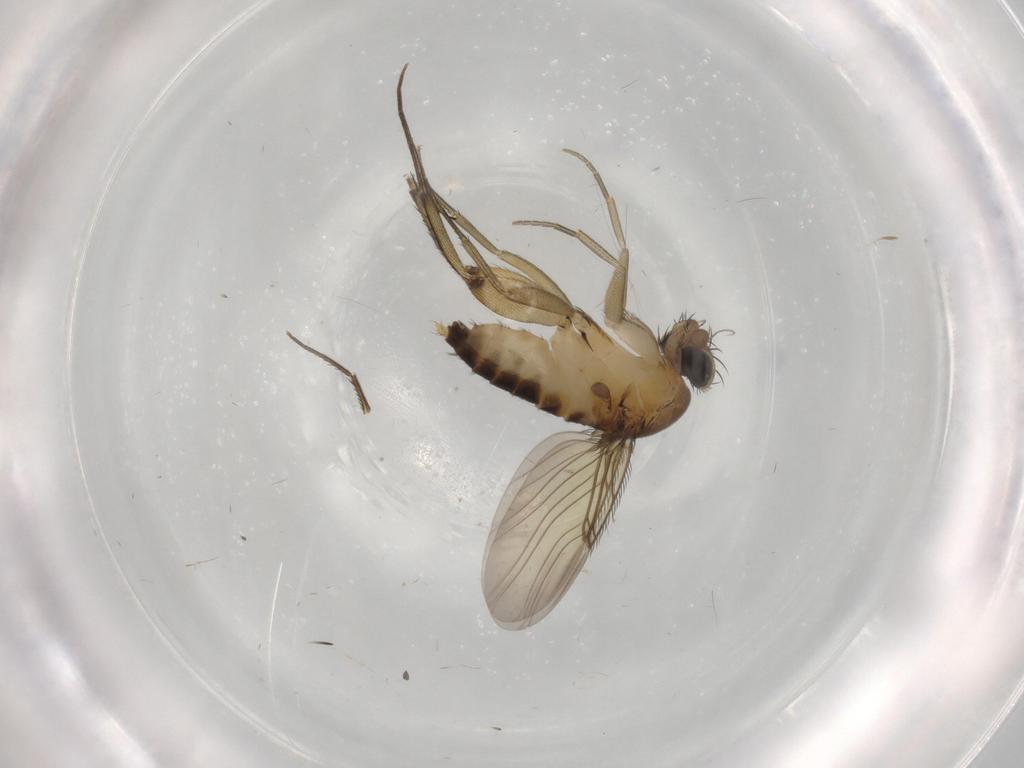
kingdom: Animalia
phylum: Arthropoda
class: Insecta
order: Diptera
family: Phoridae
